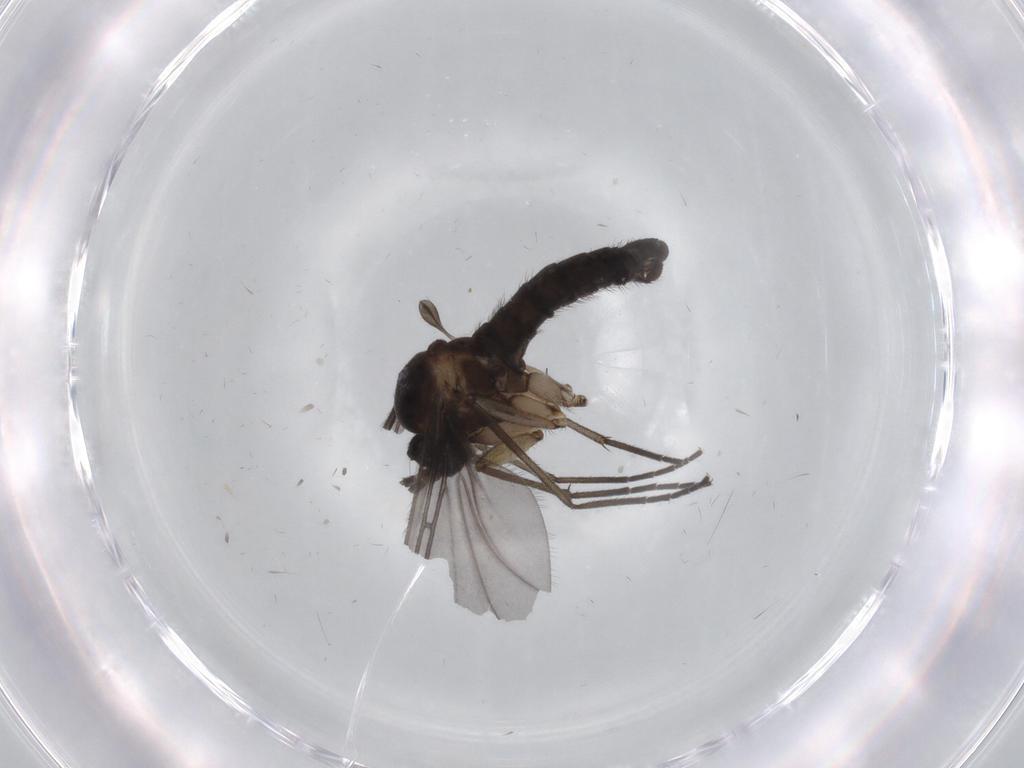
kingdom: Animalia
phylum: Arthropoda
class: Insecta
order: Diptera
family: Sciaridae
